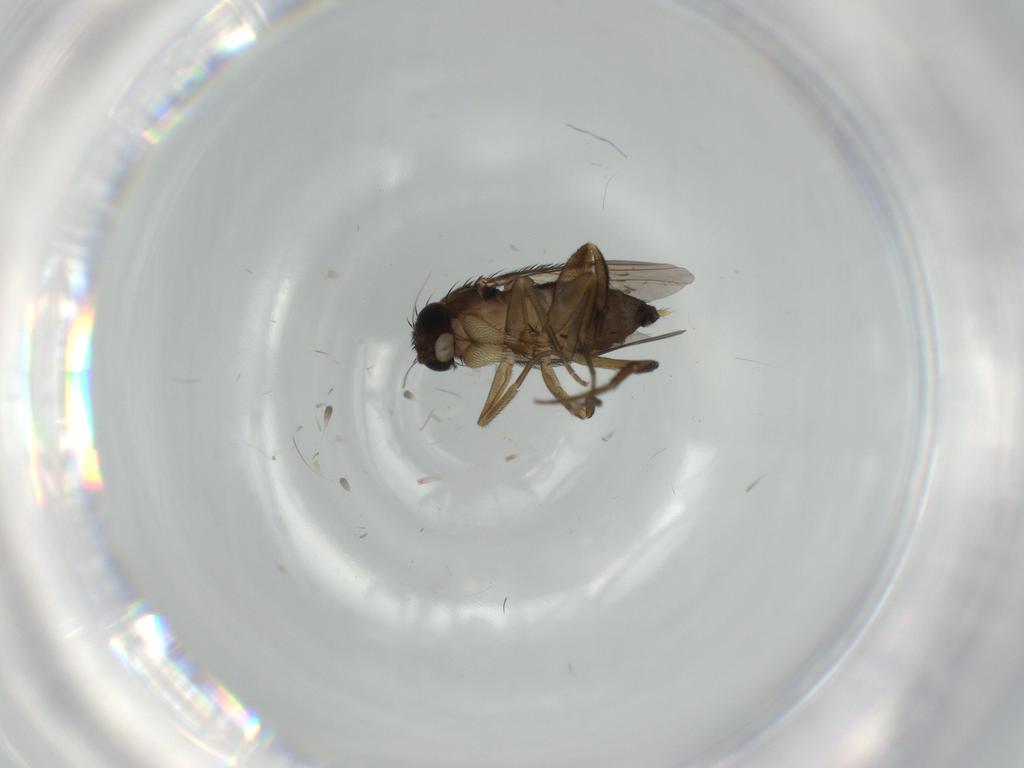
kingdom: Animalia
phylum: Arthropoda
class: Insecta
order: Diptera
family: Phoridae
